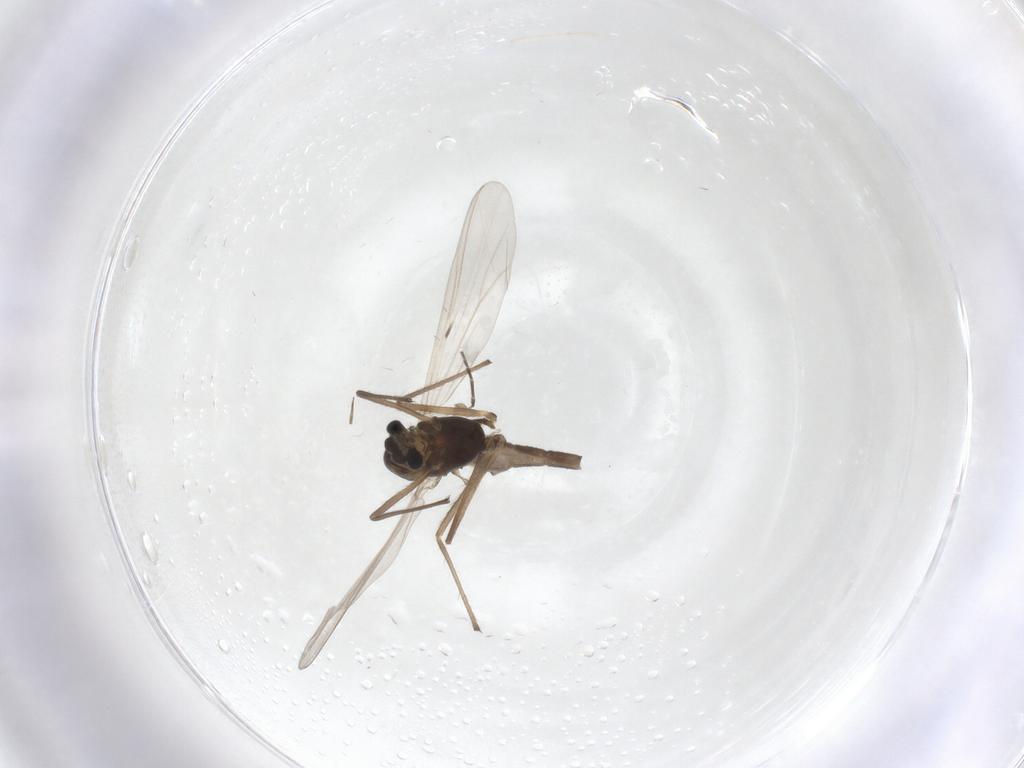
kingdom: Animalia
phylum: Arthropoda
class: Insecta
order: Diptera
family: Chironomidae
